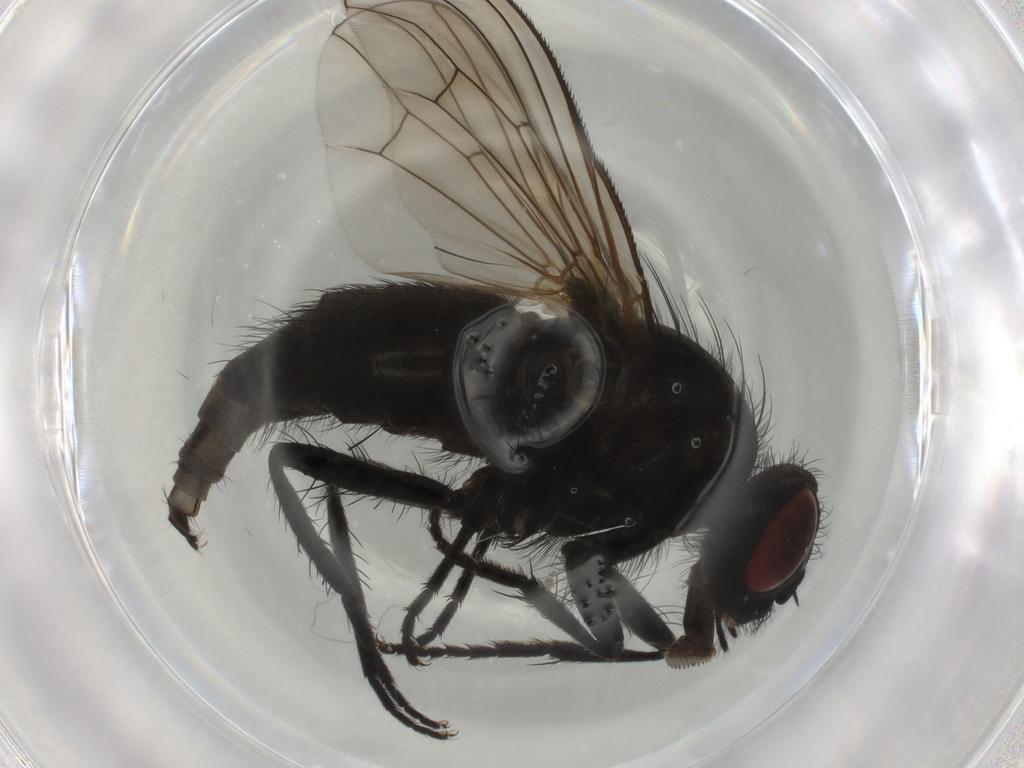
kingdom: Animalia
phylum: Arthropoda
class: Insecta
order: Diptera
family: Muscidae
